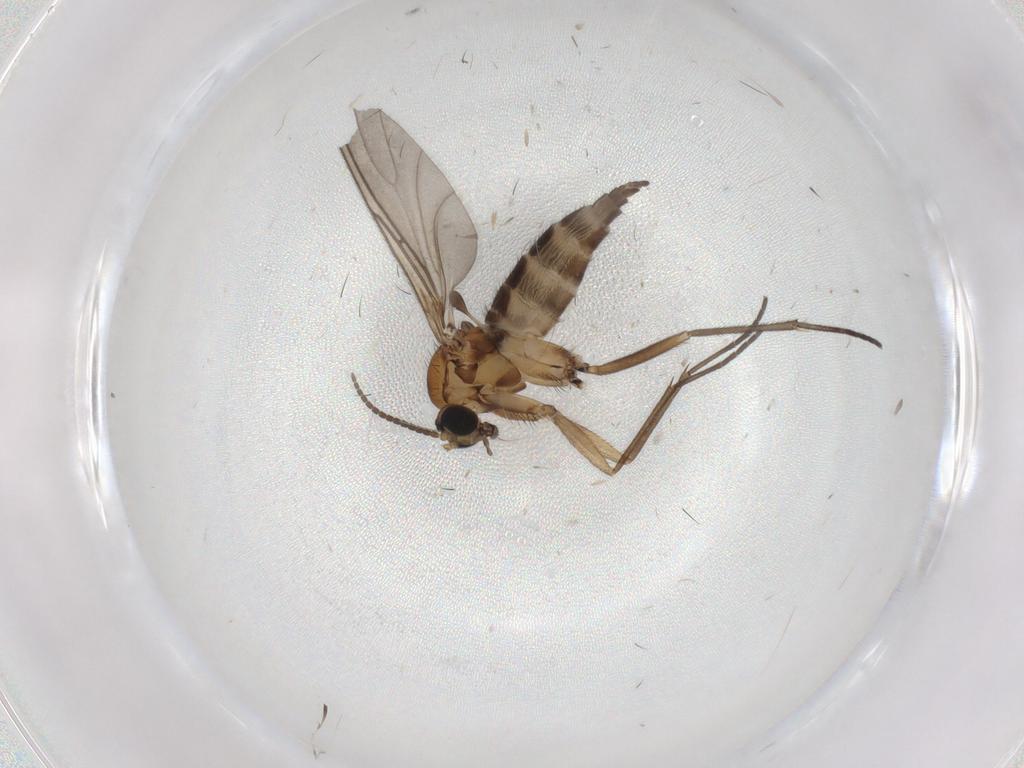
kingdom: Animalia
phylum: Arthropoda
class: Insecta
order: Diptera
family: Sciaridae
